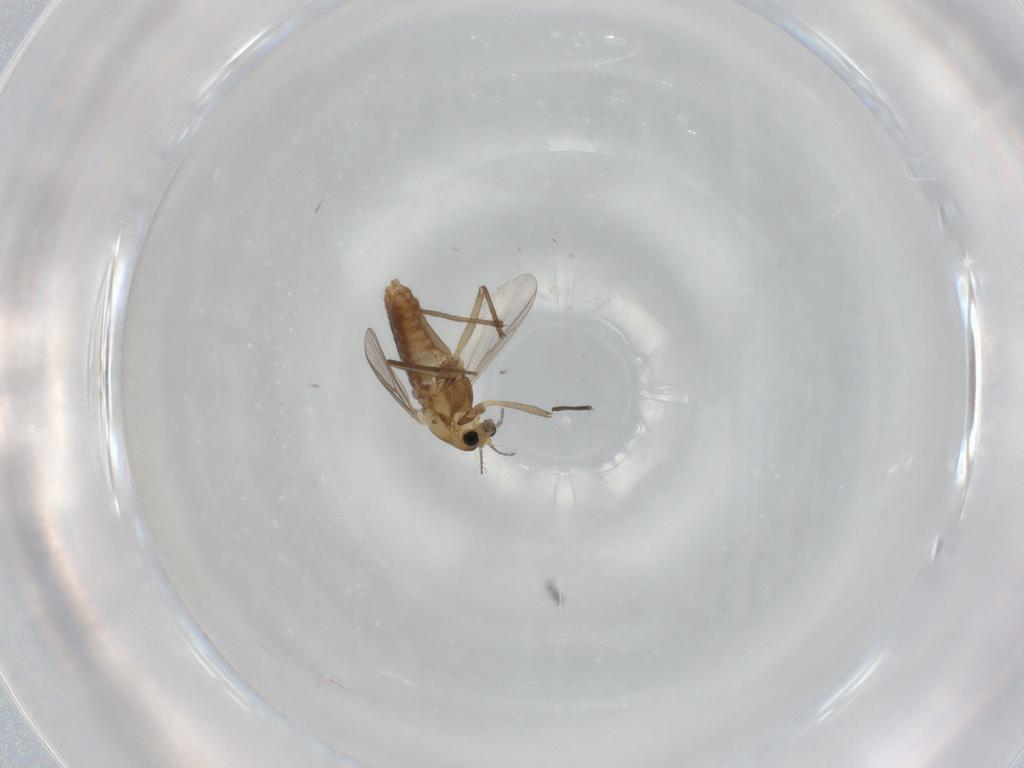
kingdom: Animalia
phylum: Arthropoda
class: Insecta
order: Diptera
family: Chironomidae
